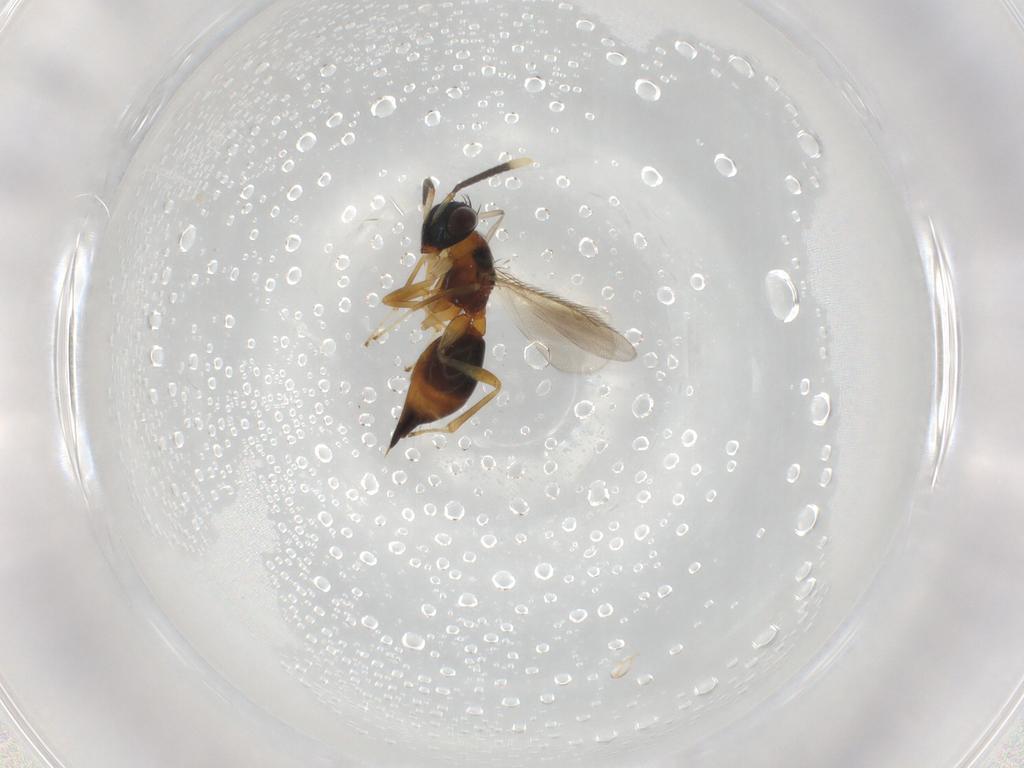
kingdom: Animalia
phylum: Arthropoda
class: Insecta
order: Hymenoptera
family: Diparidae
